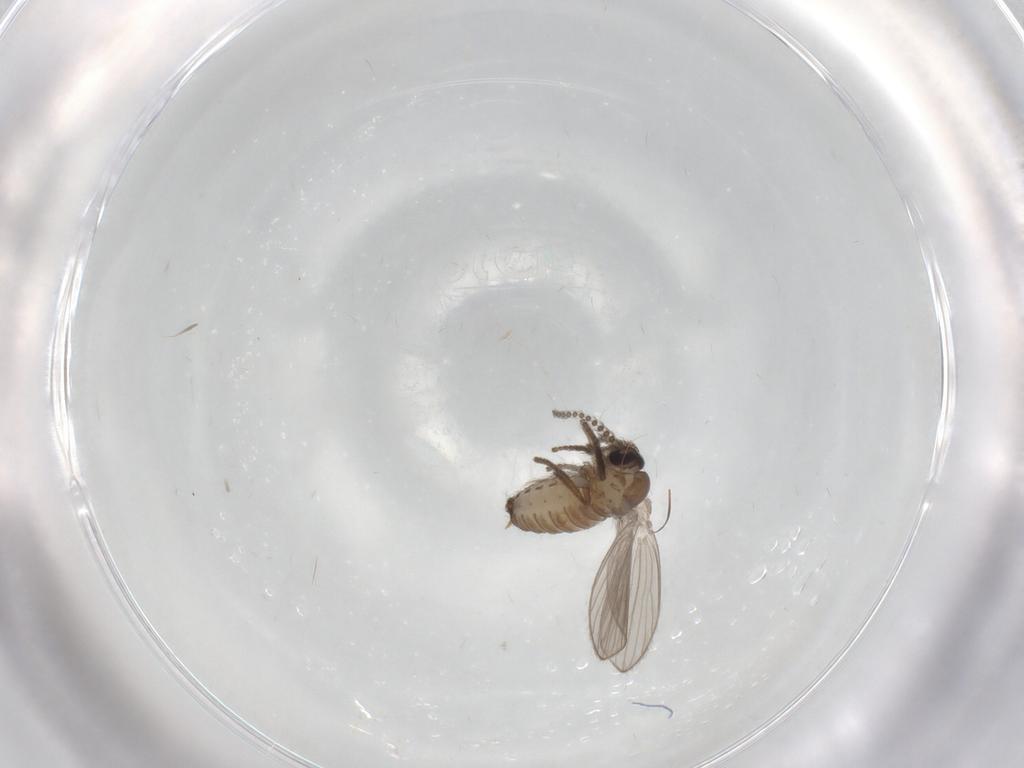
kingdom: Animalia
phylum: Arthropoda
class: Insecta
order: Diptera
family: Psychodidae
